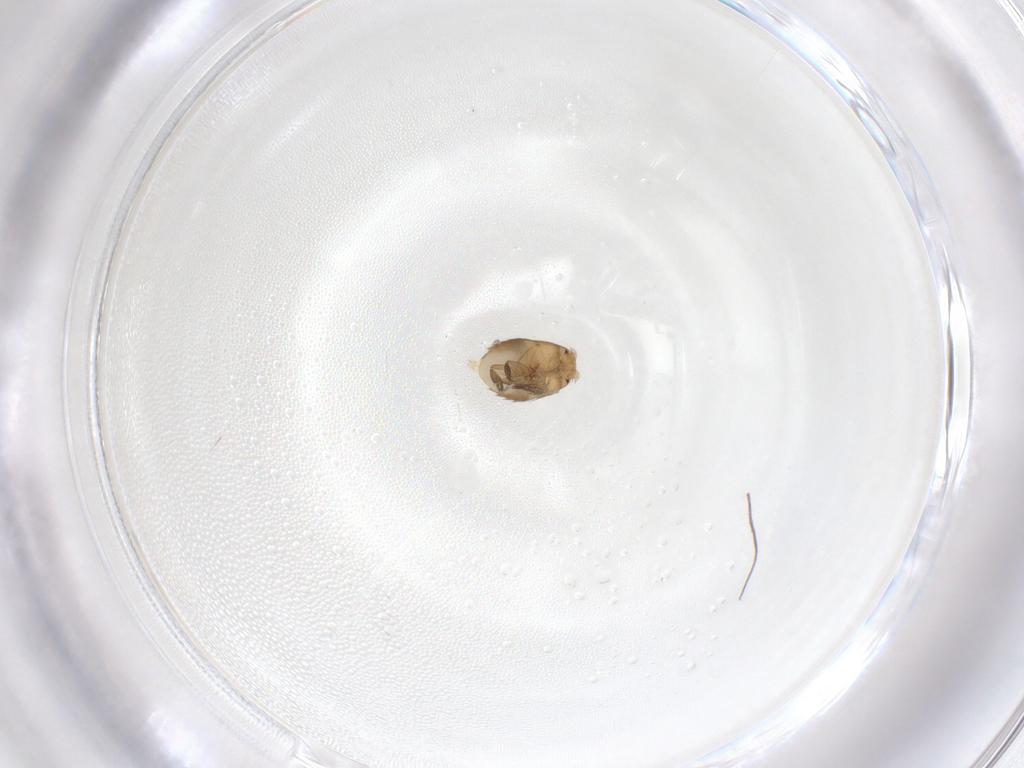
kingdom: Animalia
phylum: Arthropoda
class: Insecta
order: Diptera
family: Phoridae
